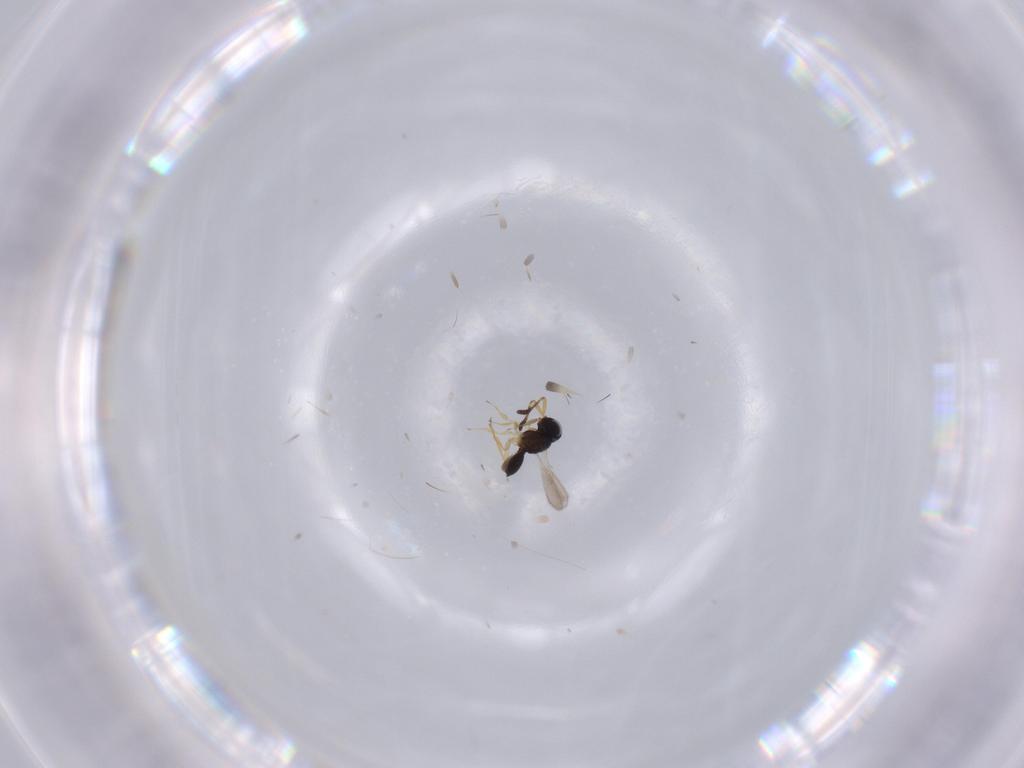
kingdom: Animalia
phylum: Arthropoda
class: Insecta
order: Hymenoptera
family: Scelionidae
